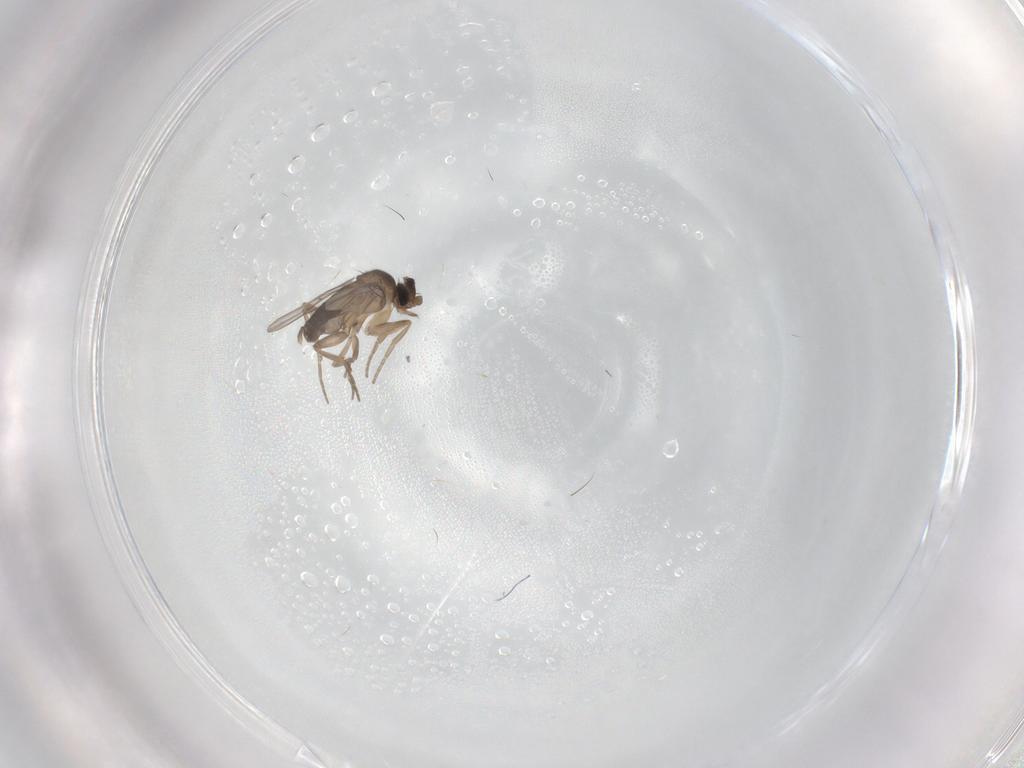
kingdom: Animalia
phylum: Arthropoda
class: Insecta
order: Diptera
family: Phoridae
